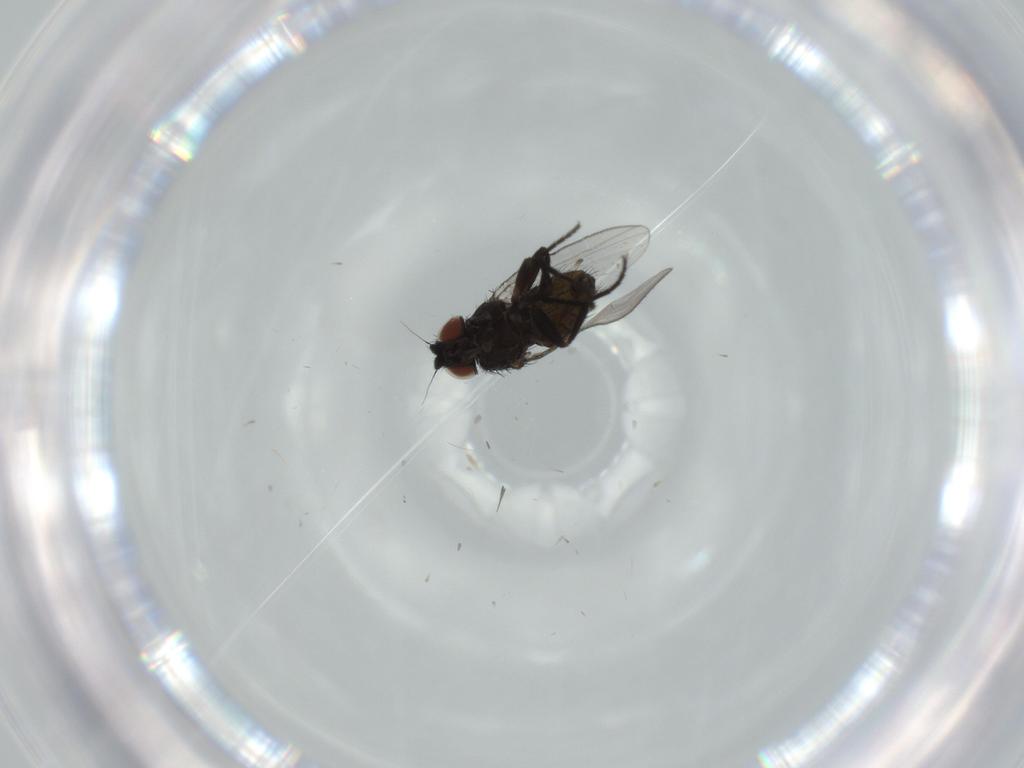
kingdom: Animalia
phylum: Arthropoda
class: Insecta
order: Diptera
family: Milichiidae
